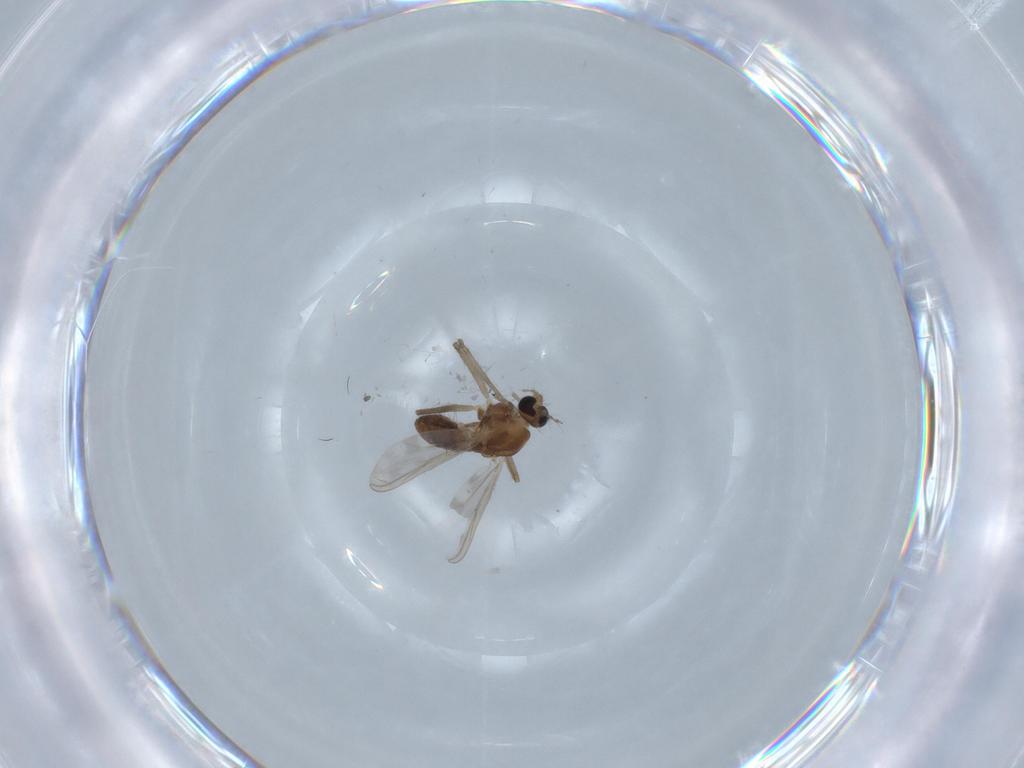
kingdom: Animalia
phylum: Arthropoda
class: Insecta
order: Diptera
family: Chironomidae
